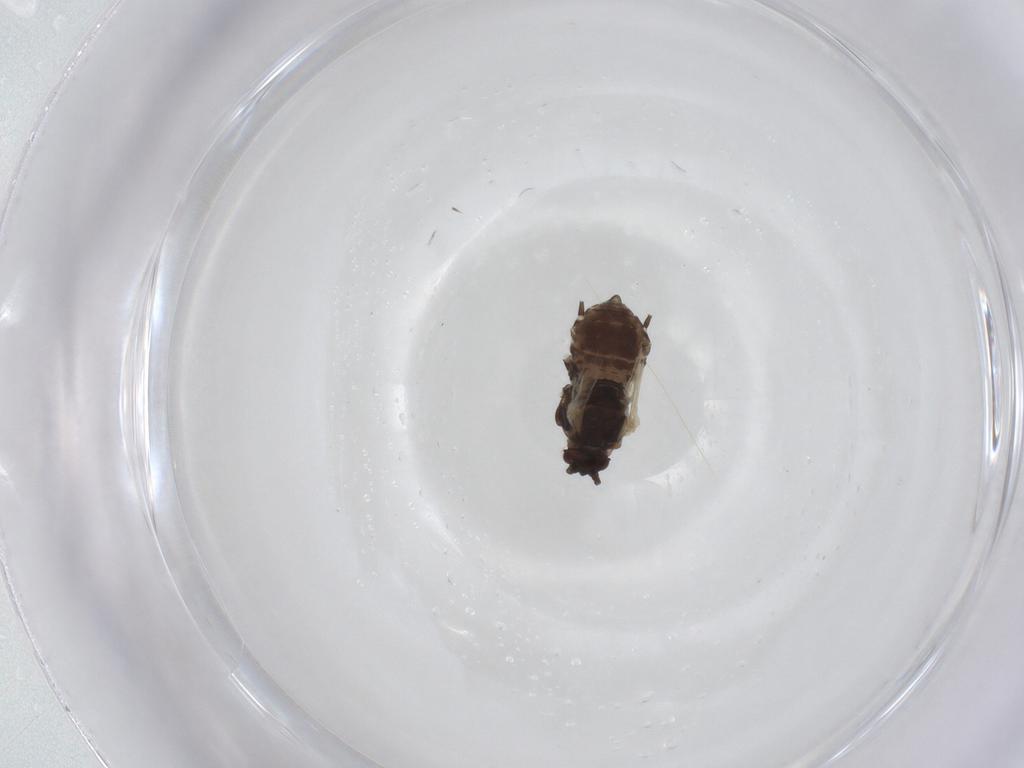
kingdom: Animalia
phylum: Arthropoda
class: Insecta
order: Hemiptera
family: Aphididae
